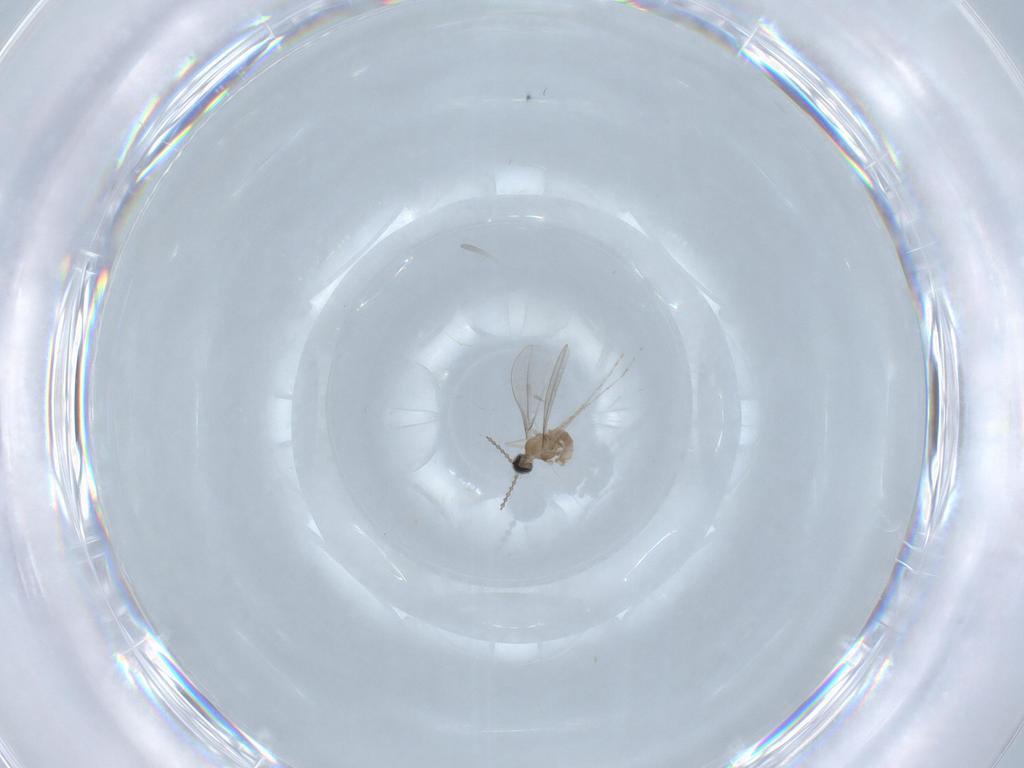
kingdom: Animalia
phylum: Arthropoda
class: Insecta
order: Diptera
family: Cecidomyiidae
